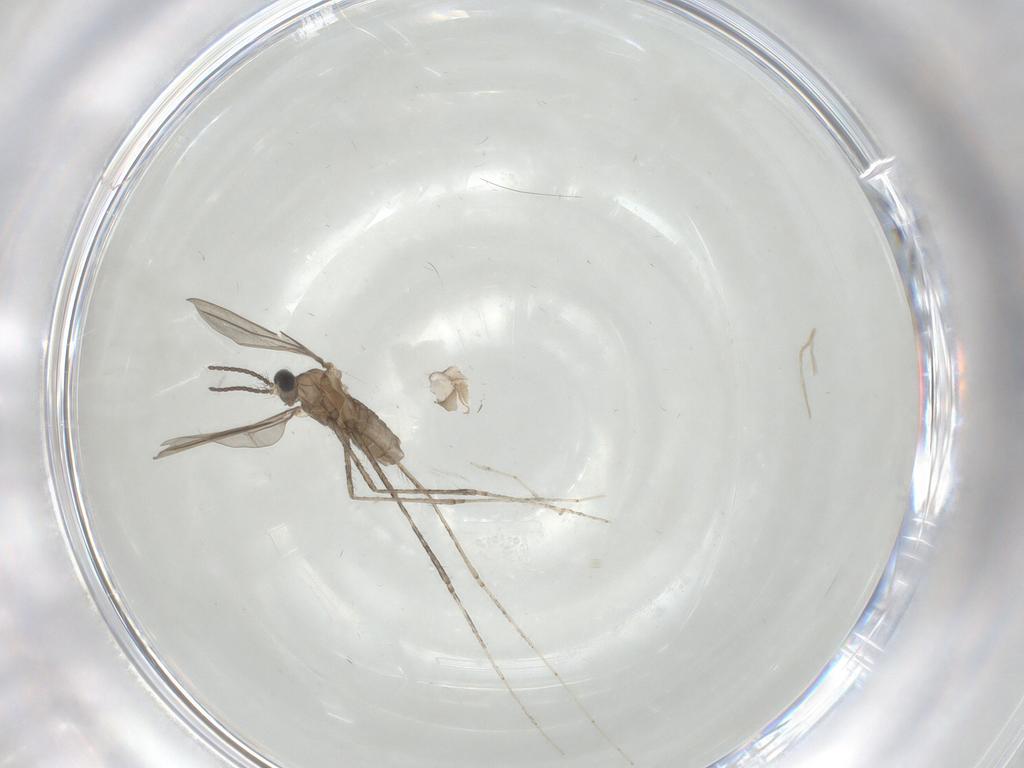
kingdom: Animalia
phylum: Arthropoda
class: Insecta
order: Diptera
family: Cecidomyiidae
